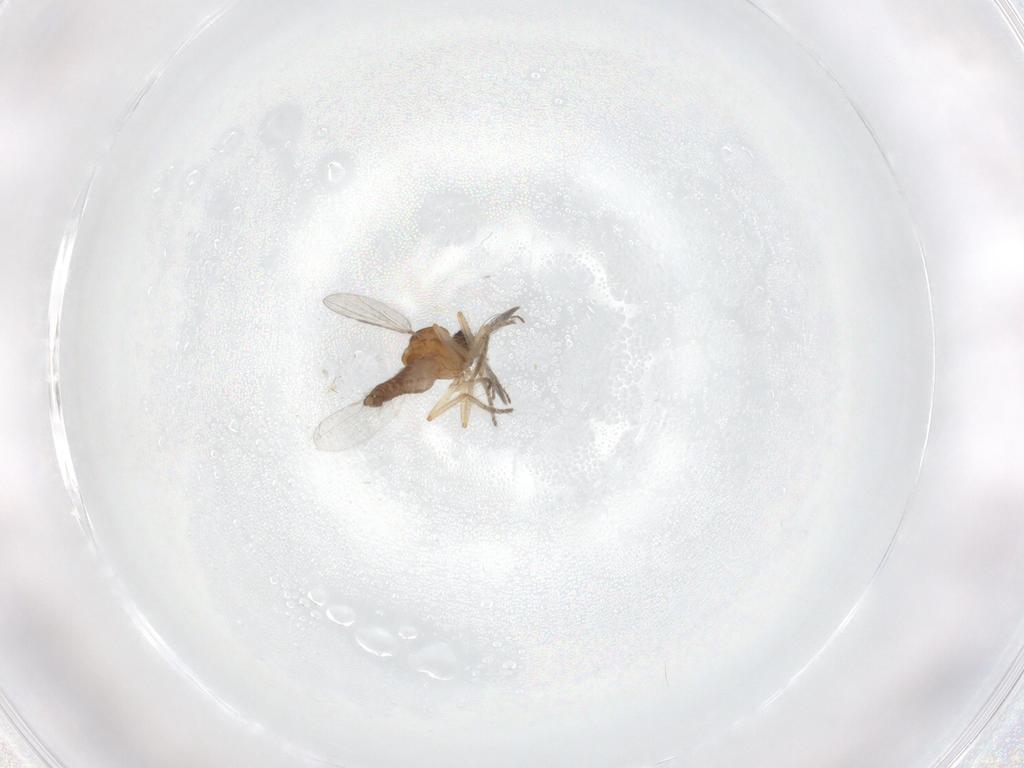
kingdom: Animalia
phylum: Arthropoda
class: Insecta
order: Diptera
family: Ceratopogonidae
